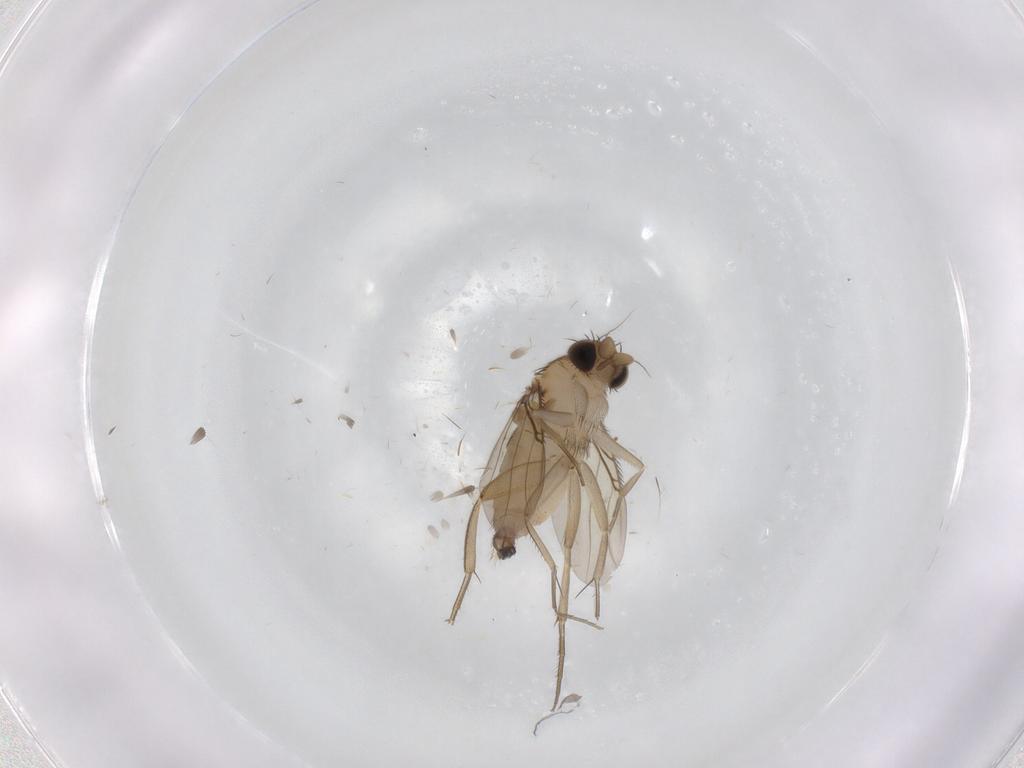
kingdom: Animalia
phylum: Arthropoda
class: Insecta
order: Diptera
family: Phoridae
